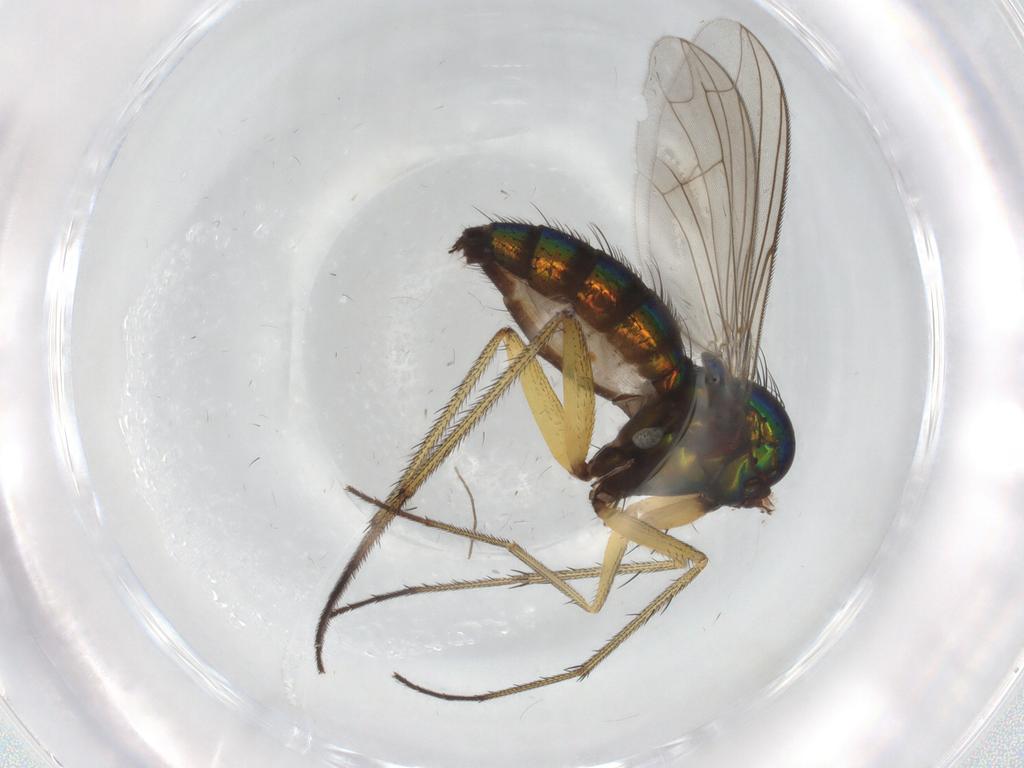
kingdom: Animalia
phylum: Arthropoda
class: Insecta
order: Diptera
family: Dolichopodidae
